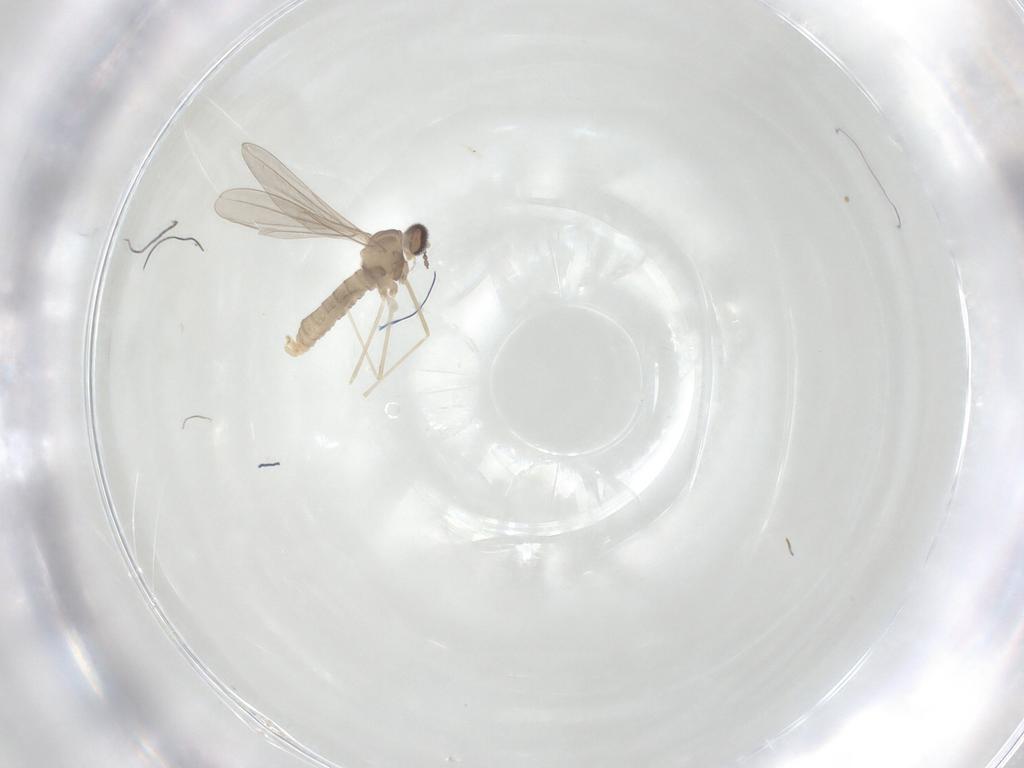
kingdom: Animalia
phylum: Arthropoda
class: Insecta
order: Diptera
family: Cecidomyiidae
